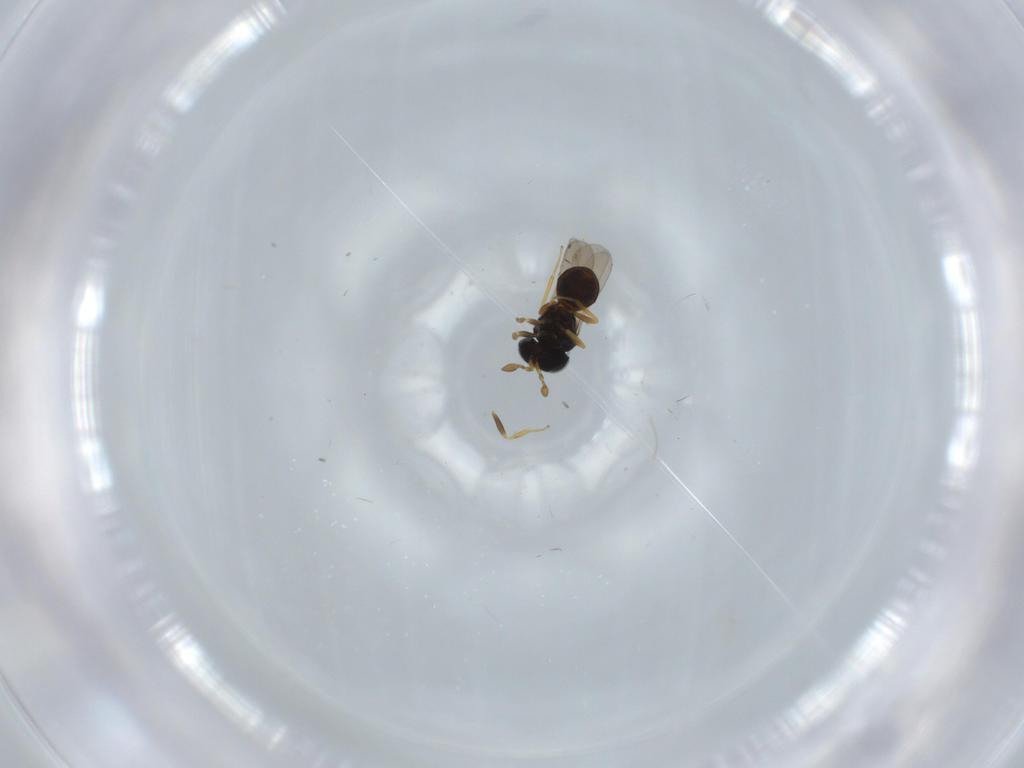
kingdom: Animalia
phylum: Arthropoda
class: Insecta
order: Hymenoptera
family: Scelionidae
